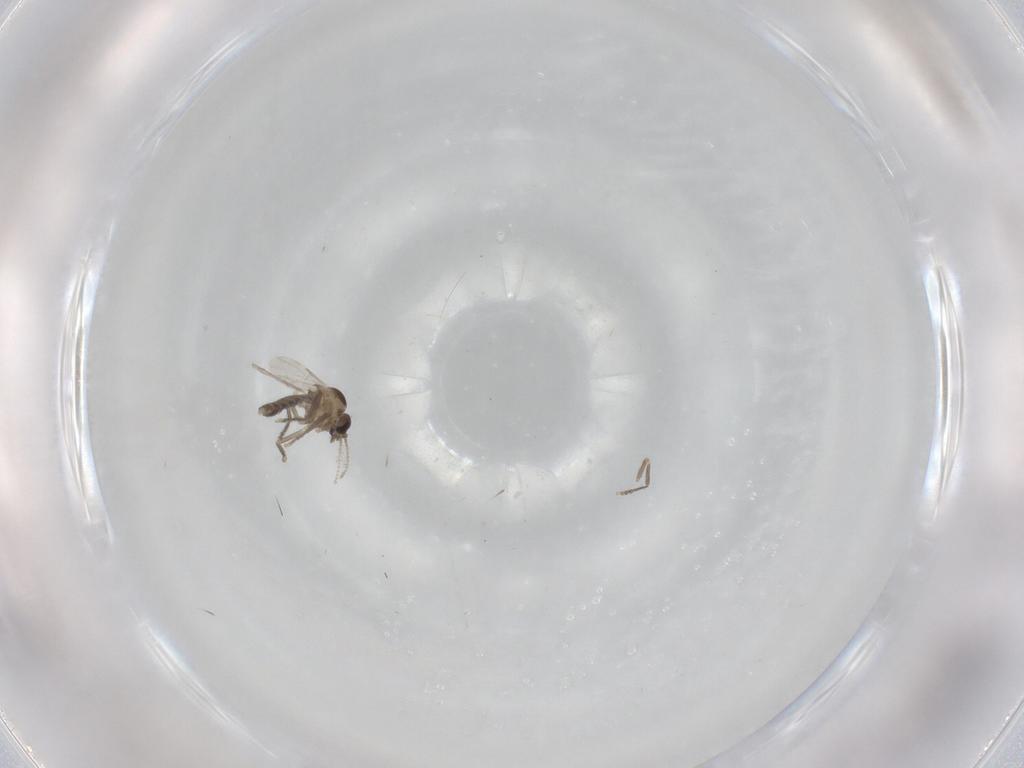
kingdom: Animalia
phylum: Arthropoda
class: Insecta
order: Diptera
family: Ceratopogonidae
